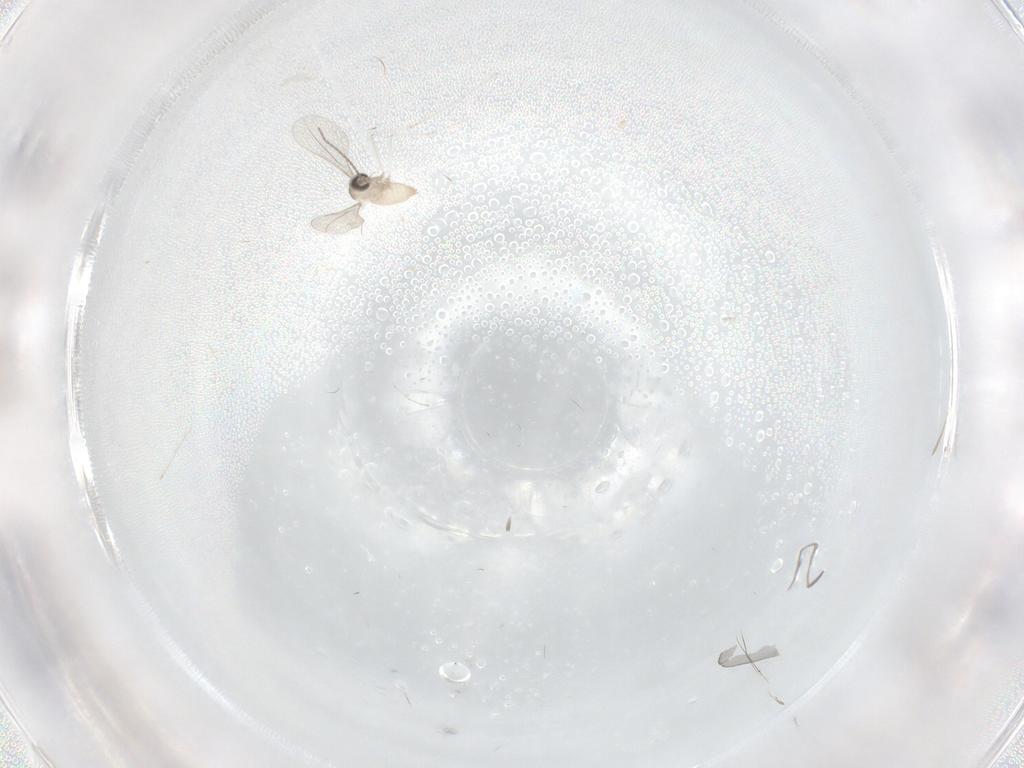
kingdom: Animalia
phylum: Arthropoda
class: Insecta
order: Diptera
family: Cecidomyiidae
